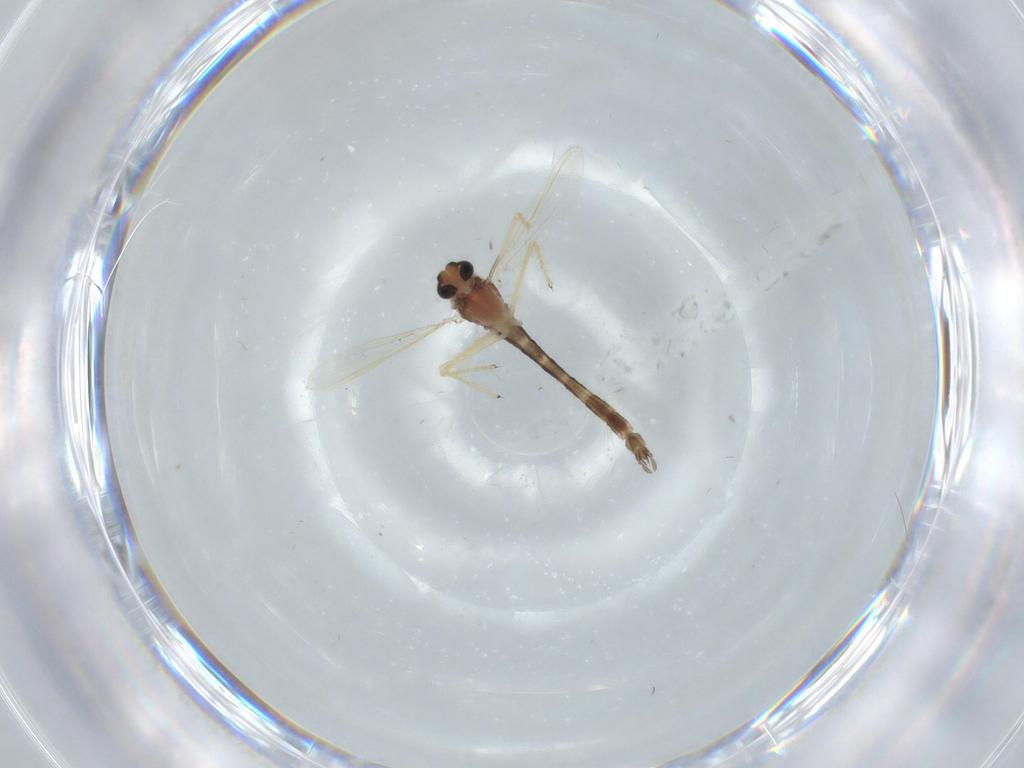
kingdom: Animalia
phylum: Arthropoda
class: Insecta
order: Diptera
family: Chironomidae
